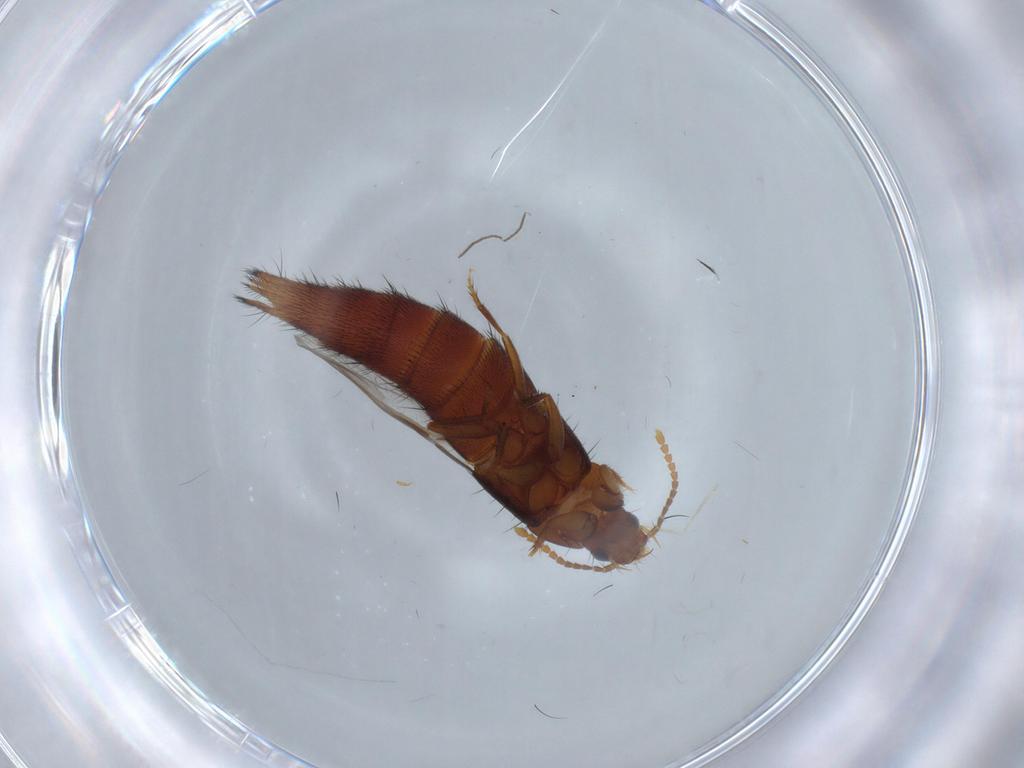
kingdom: Animalia
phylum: Arthropoda
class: Insecta
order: Coleoptera
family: Staphylinidae
